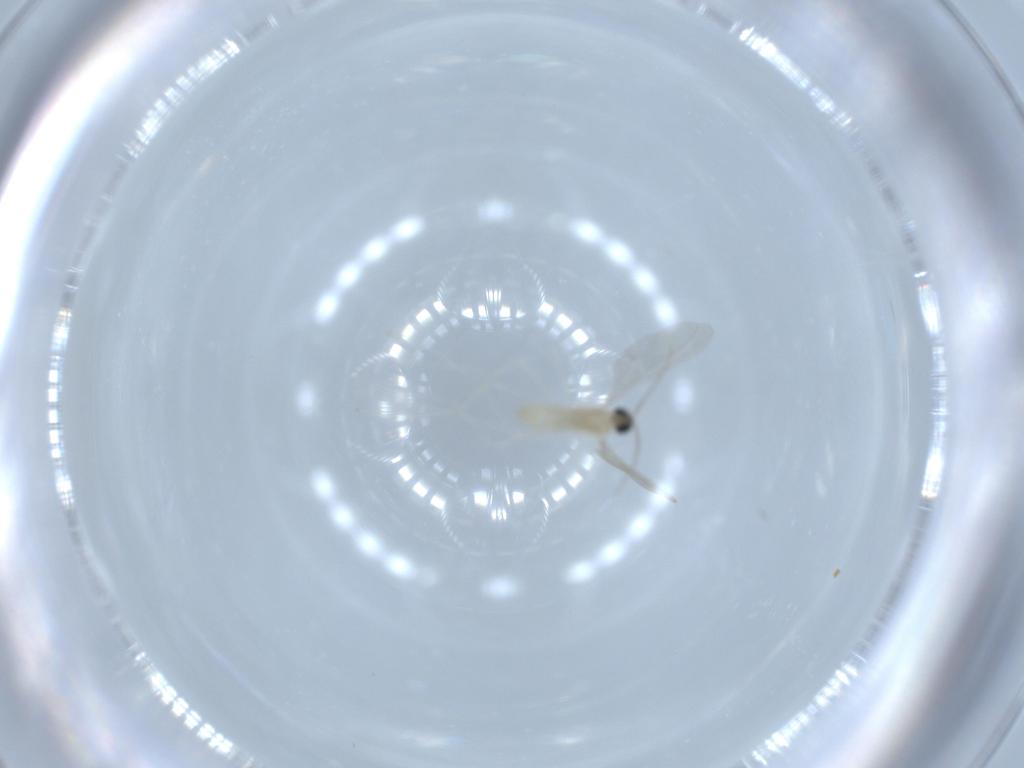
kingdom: Animalia
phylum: Arthropoda
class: Insecta
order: Diptera
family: Cecidomyiidae
